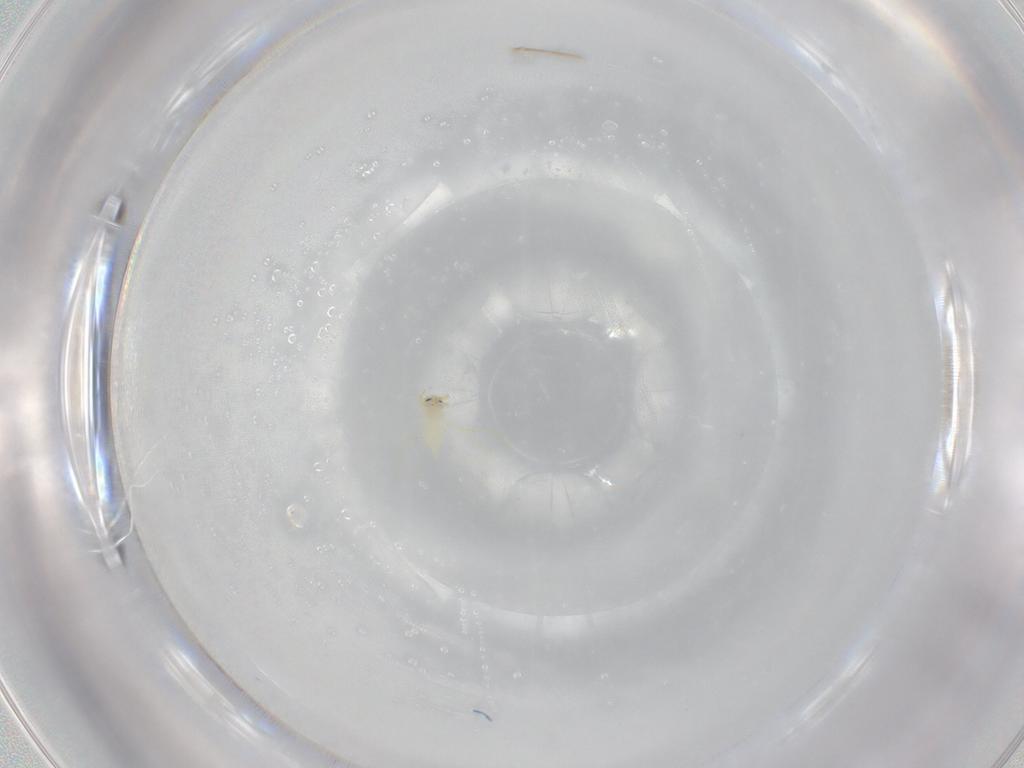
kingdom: Animalia
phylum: Arthropoda
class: Insecta
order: Hemiptera
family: Aleyrodidae
